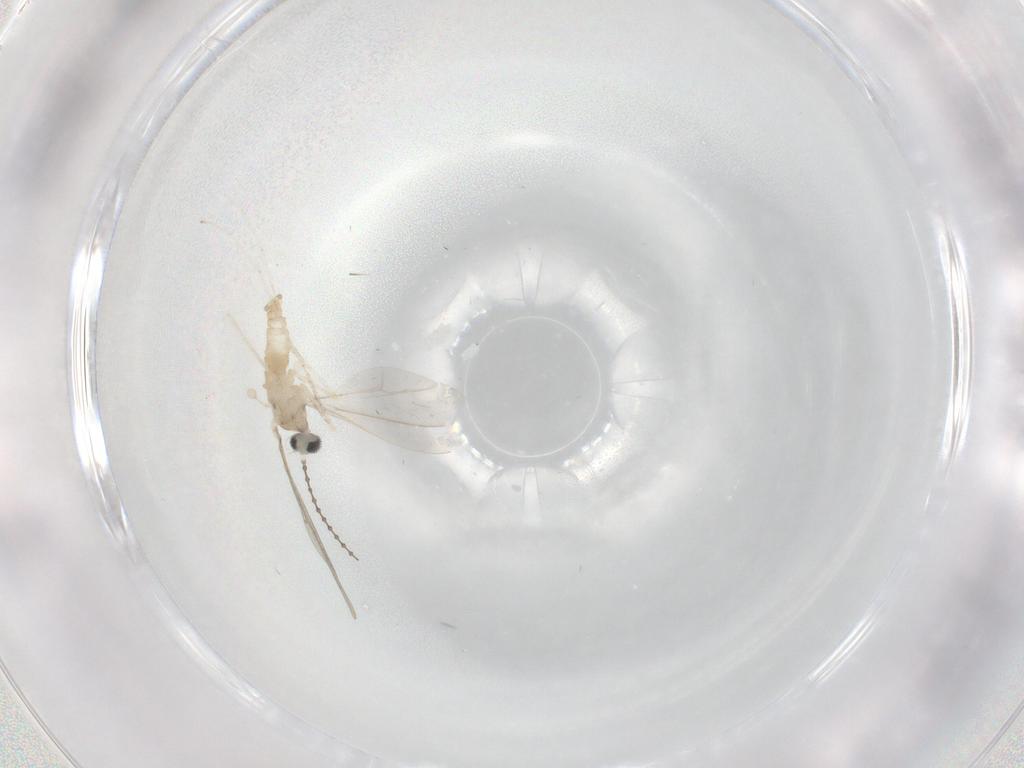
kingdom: Animalia
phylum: Arthropoda
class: Insecta
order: Diptera
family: Cecidomyiidae
